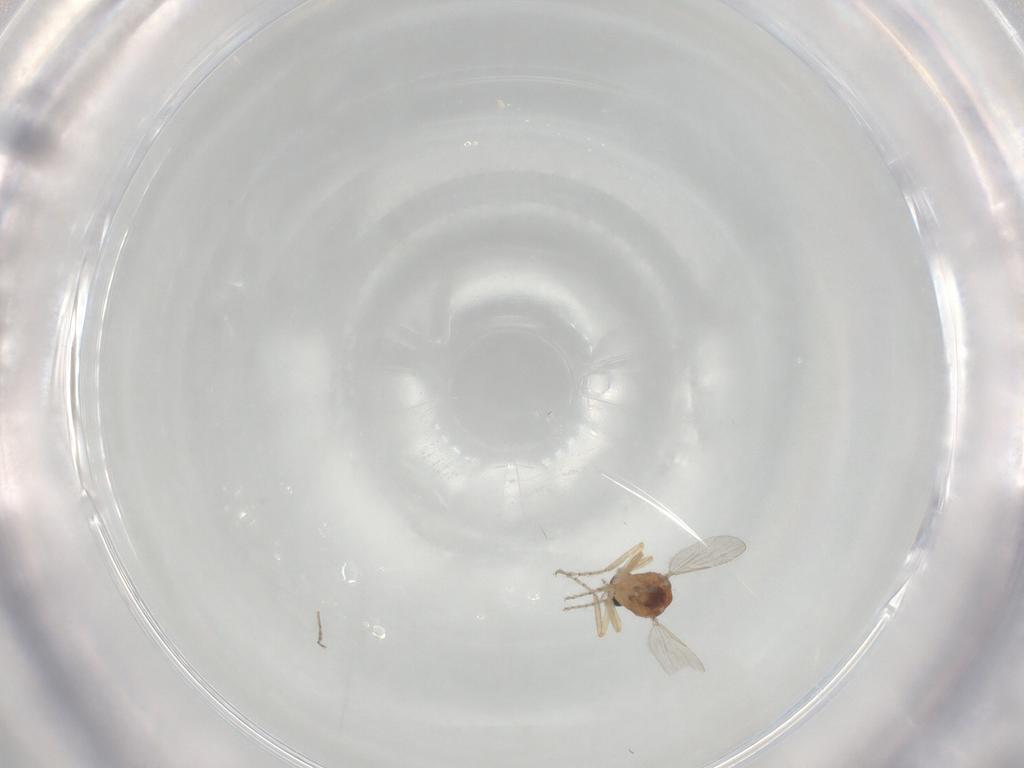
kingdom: Animalia
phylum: Arthropoda
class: Insecta
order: Diptera
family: Ceratopogonidae
